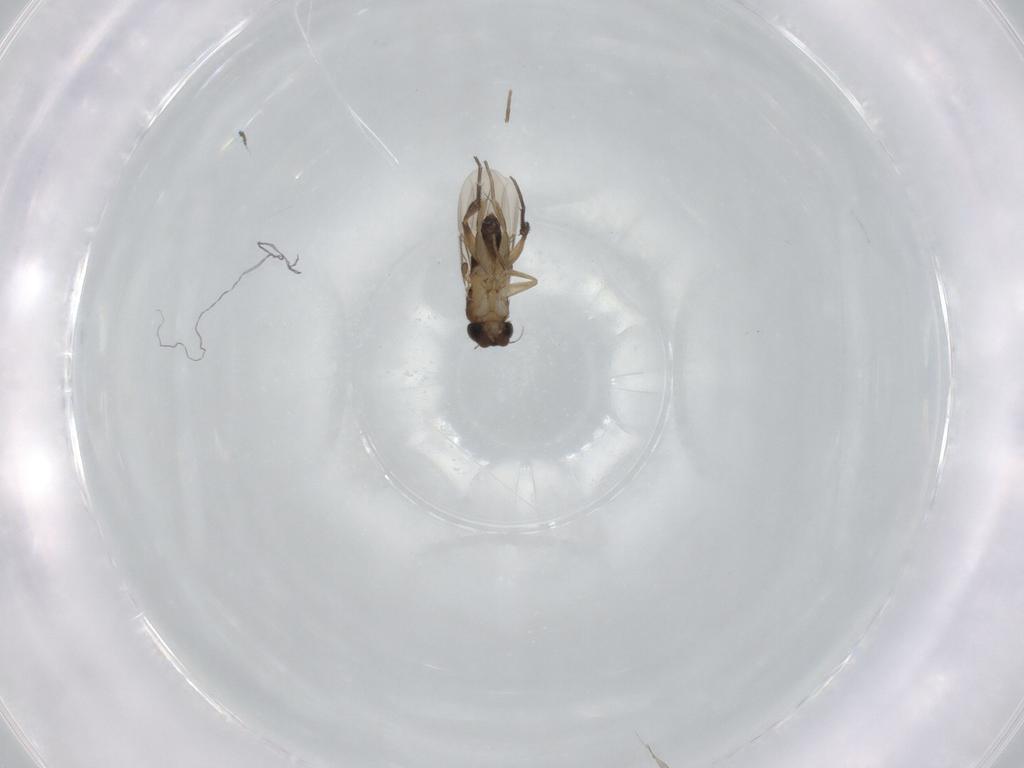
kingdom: Animalia
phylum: Arthropoda
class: Insecta
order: Diptera
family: Phoridae
